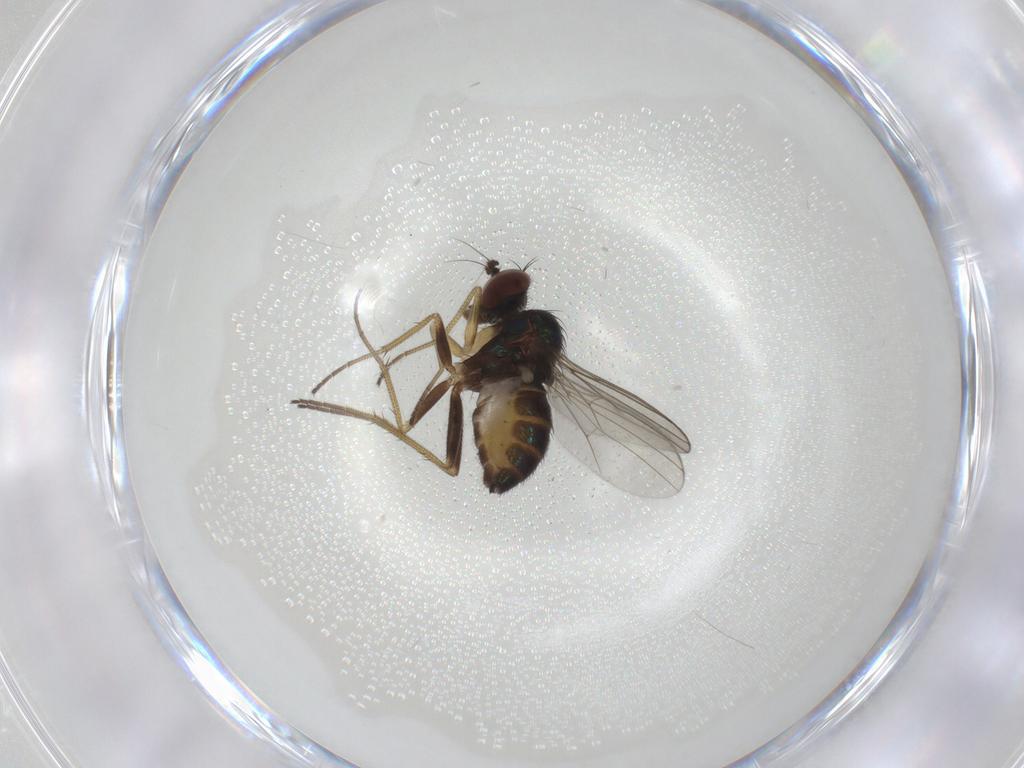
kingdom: Animalia
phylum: Arthropoda
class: Insecta
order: Diptera
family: Dolichopodidae
